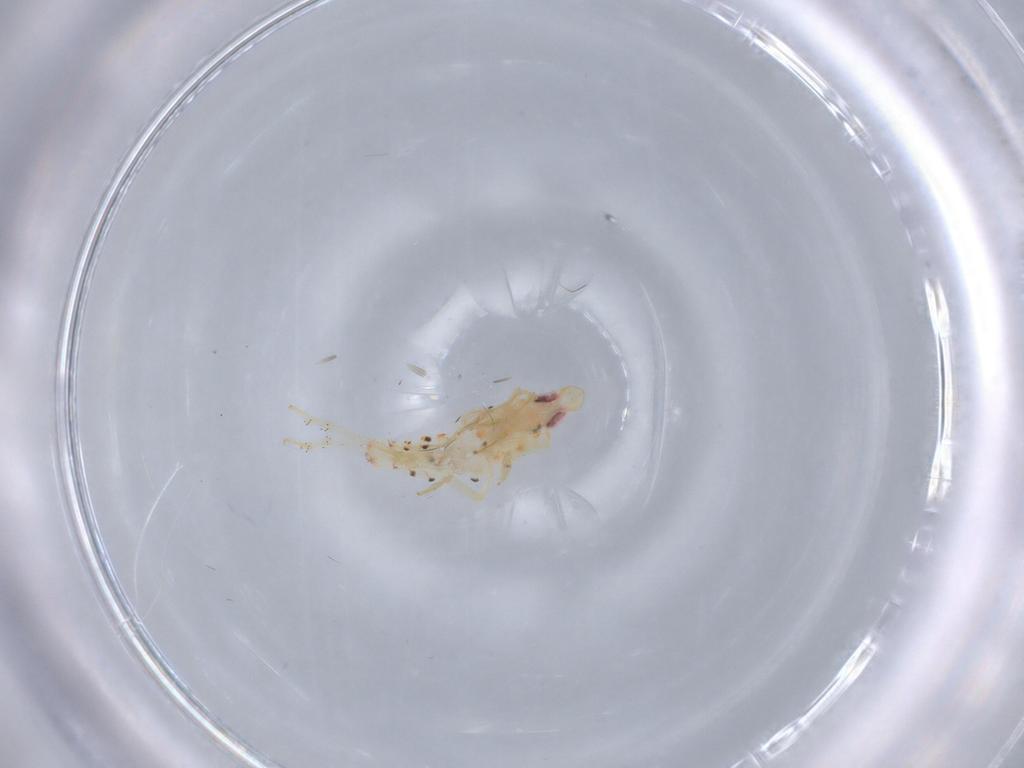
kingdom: Animalia
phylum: Arthropoda
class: Insecta
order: Hemiptera
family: Tropiduchidae
